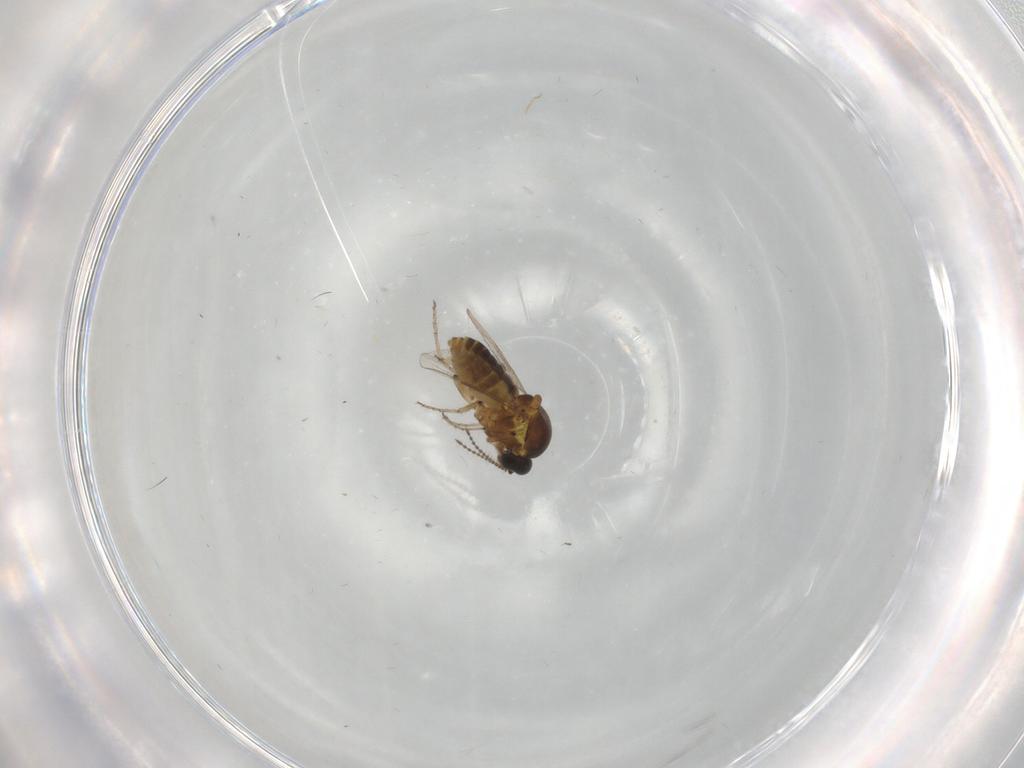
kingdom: Animalia
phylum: Arthropoda
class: Insecta
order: Diptera
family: Ceratopogonidae
